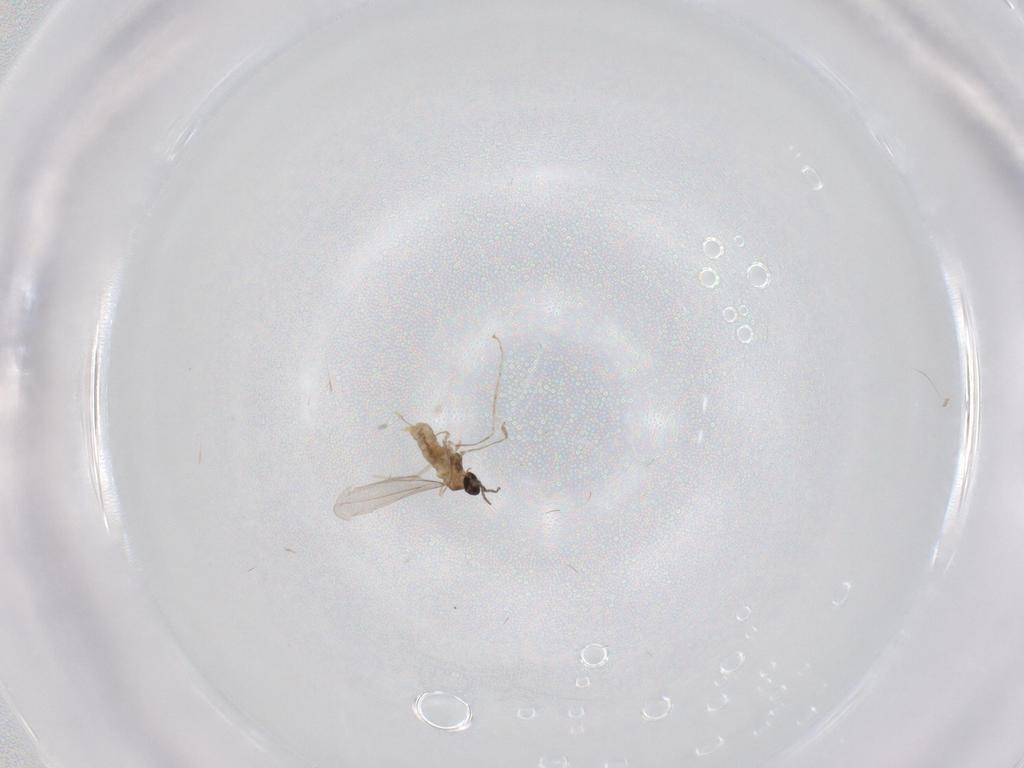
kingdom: Animalia
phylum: Arthropoda
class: Insecta
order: Diptera
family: Cecidomyiidae
